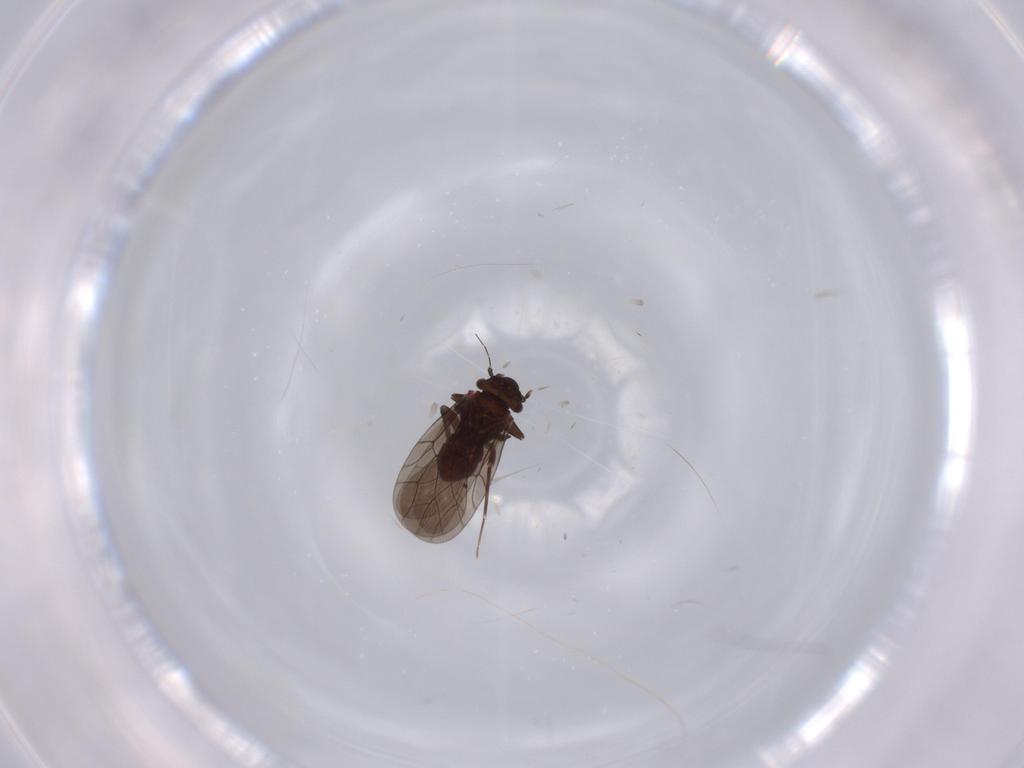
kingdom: Animalia
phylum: Arthropoda
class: Insecta
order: Psocodea
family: Lepidopsocidae
